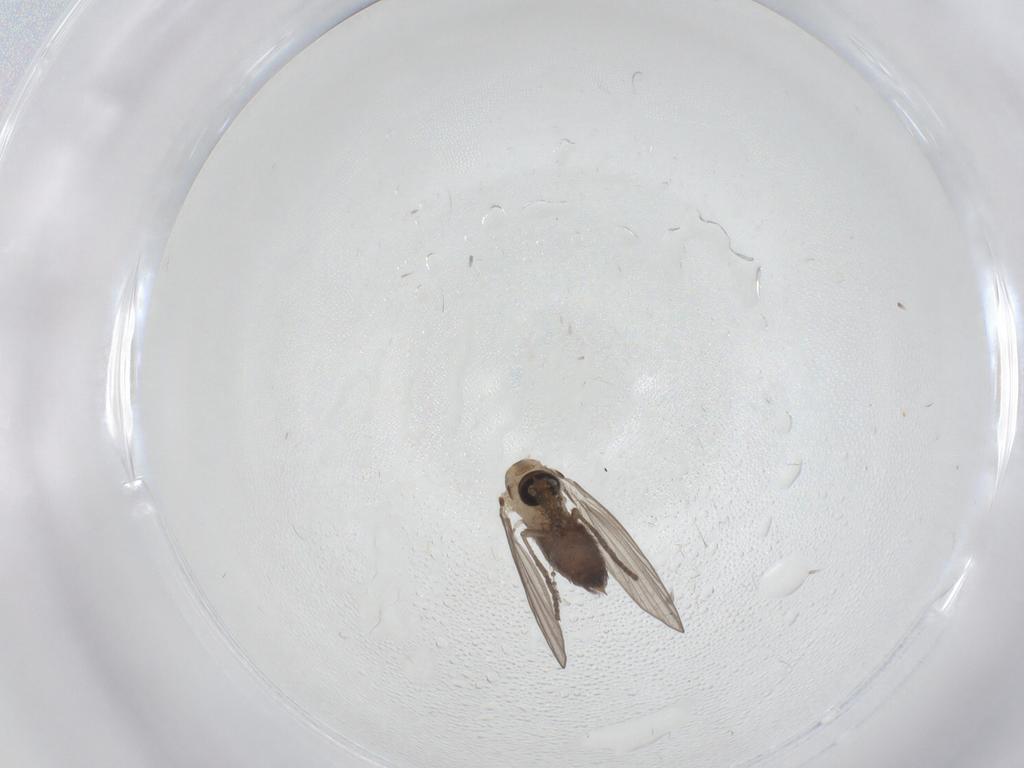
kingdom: Animalia
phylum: Arthropoda
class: Insecta
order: Diptera
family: Psychodidae
